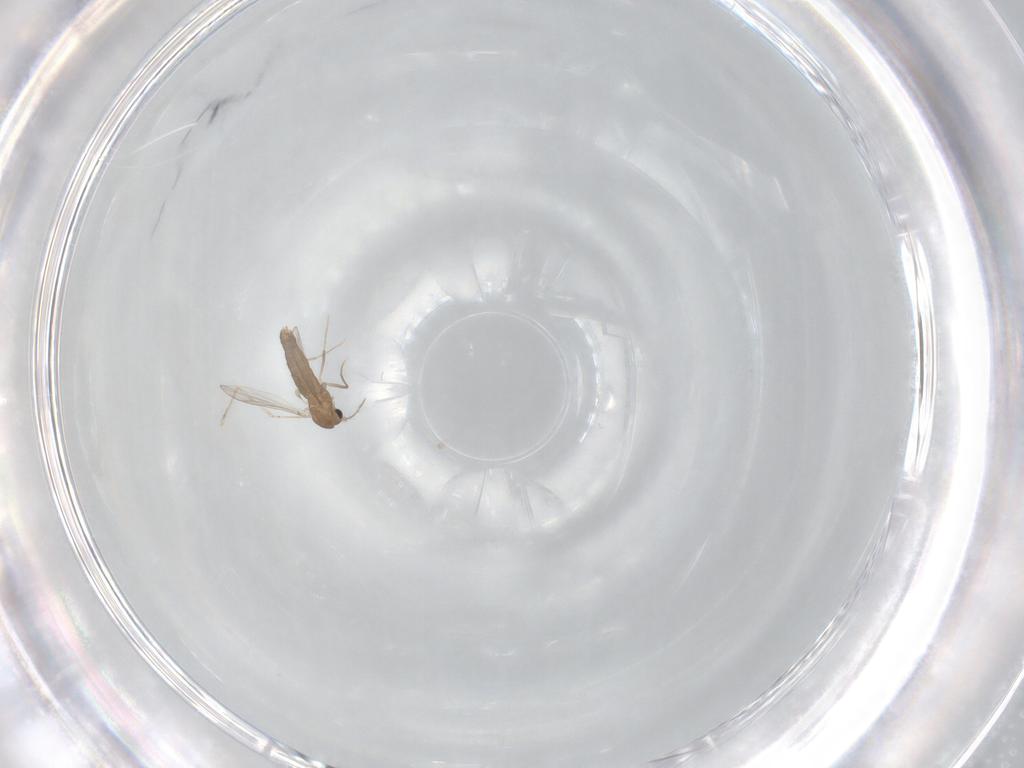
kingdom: Animalia
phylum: Arthropoda
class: Insecta
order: Diptera
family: Chironomidae
